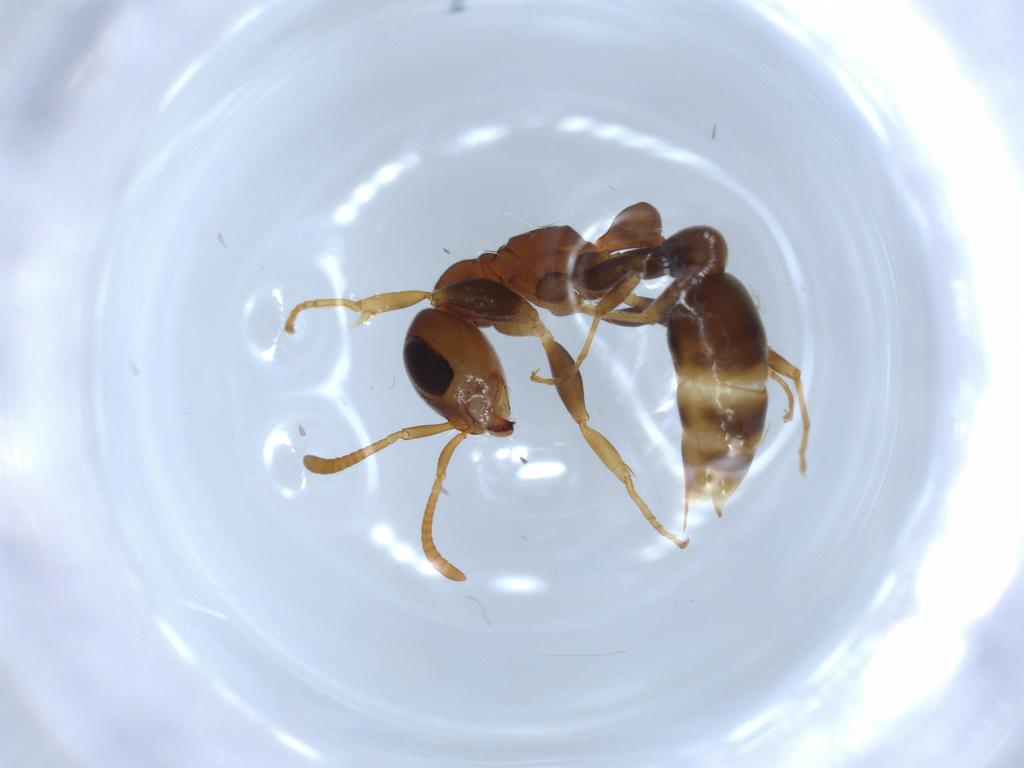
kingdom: Animalia
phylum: Arthropoda
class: Insecta
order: Hymenoptera
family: Formicidae
